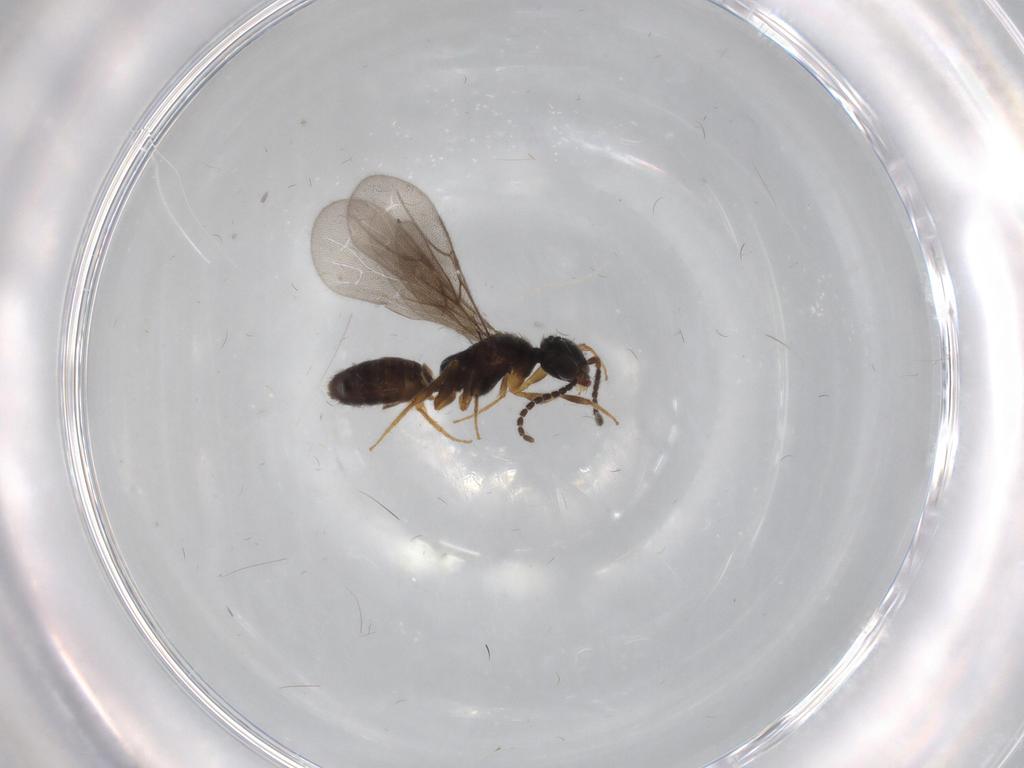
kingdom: Animalia
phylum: Arthropoda
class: Insecta
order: Hymenoptera
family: Bethylidae
